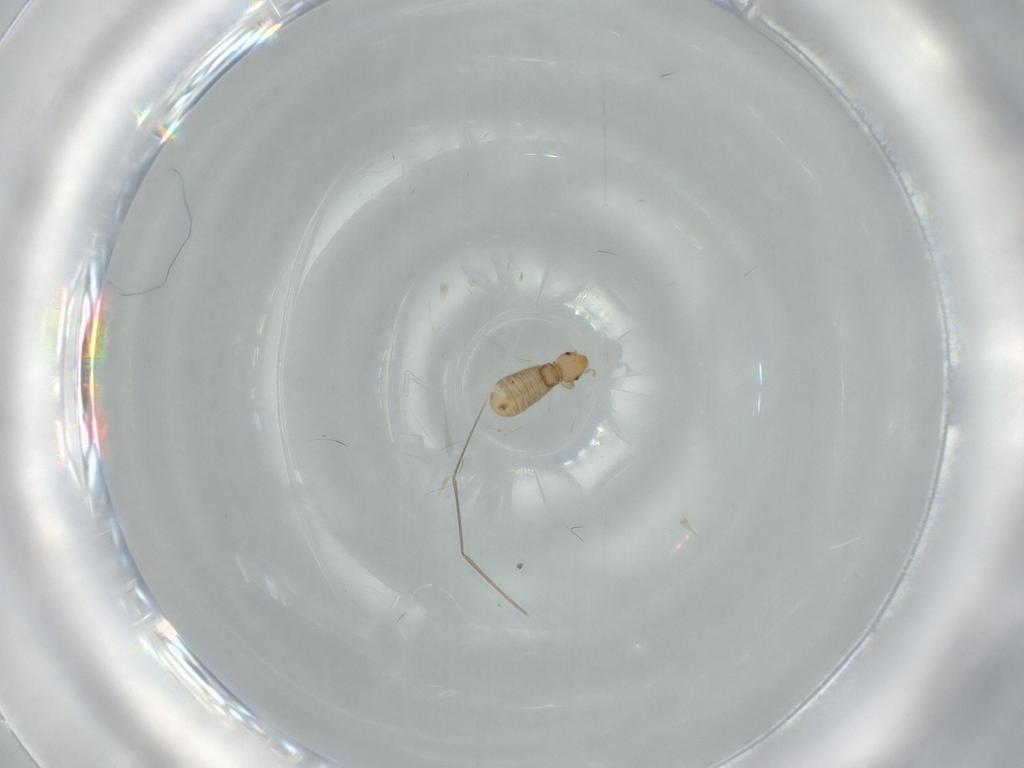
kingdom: Animalia
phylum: Arthropoda
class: Insecta
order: Psocodea
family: Liposcelididae
